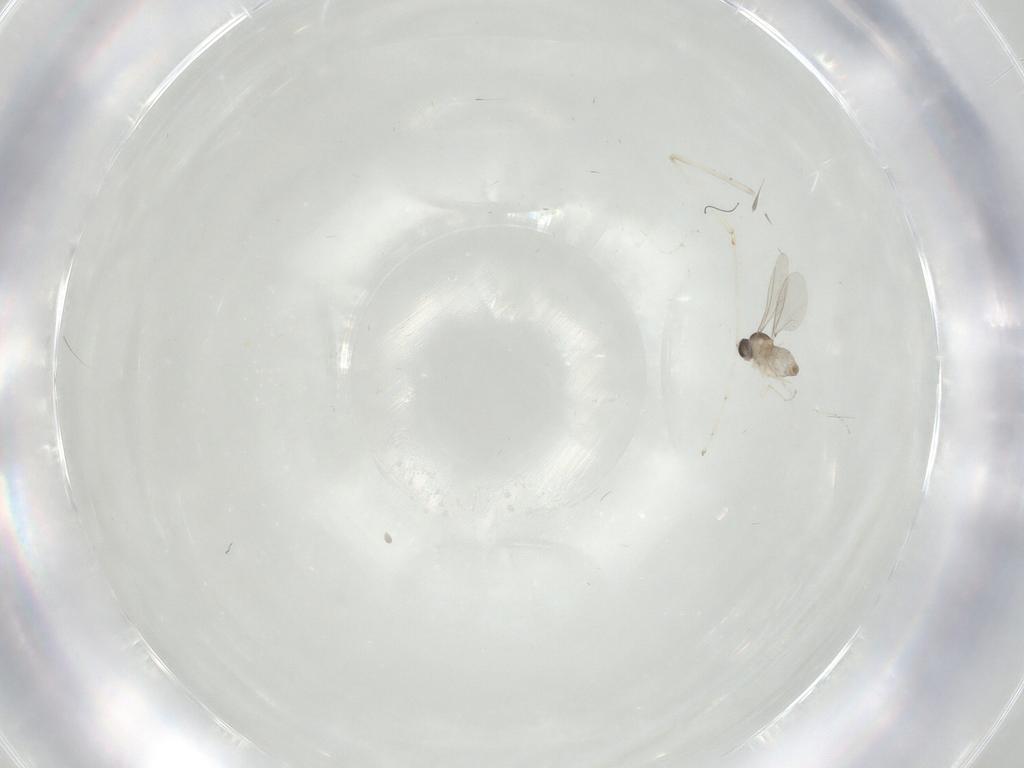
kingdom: Animalia
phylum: Arthropoda
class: Insecta
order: Diptera
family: Cecidomyiidae
